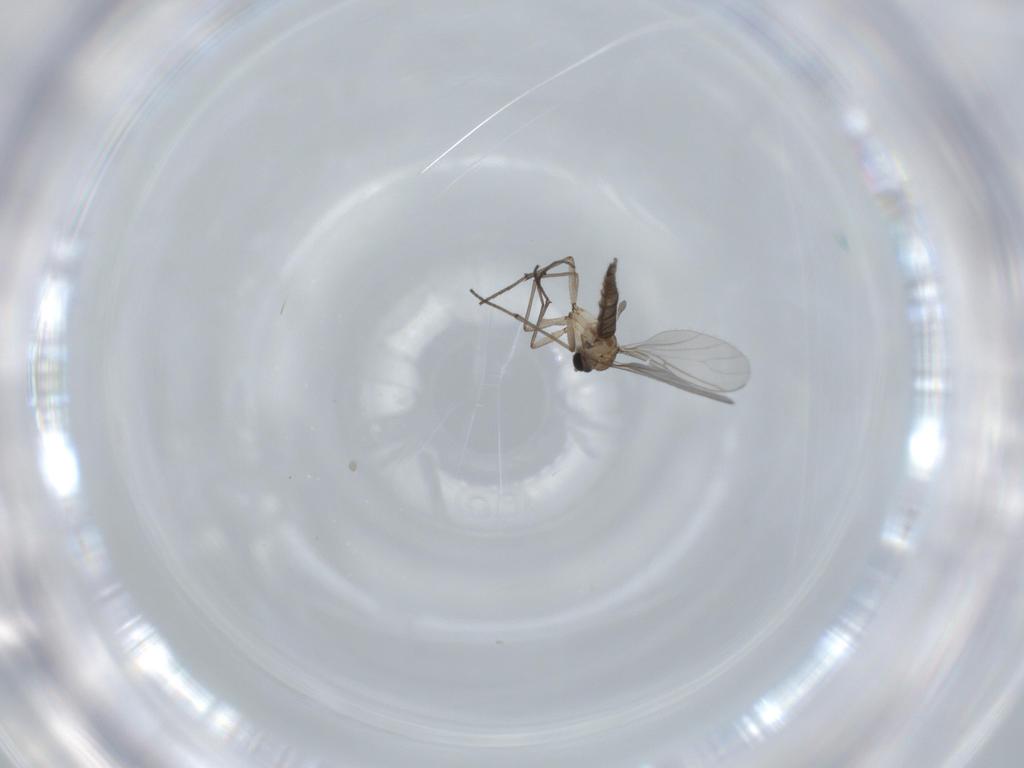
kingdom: Animalia
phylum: Arthropoda
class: Insecta
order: Diptera
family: Sciaridae
